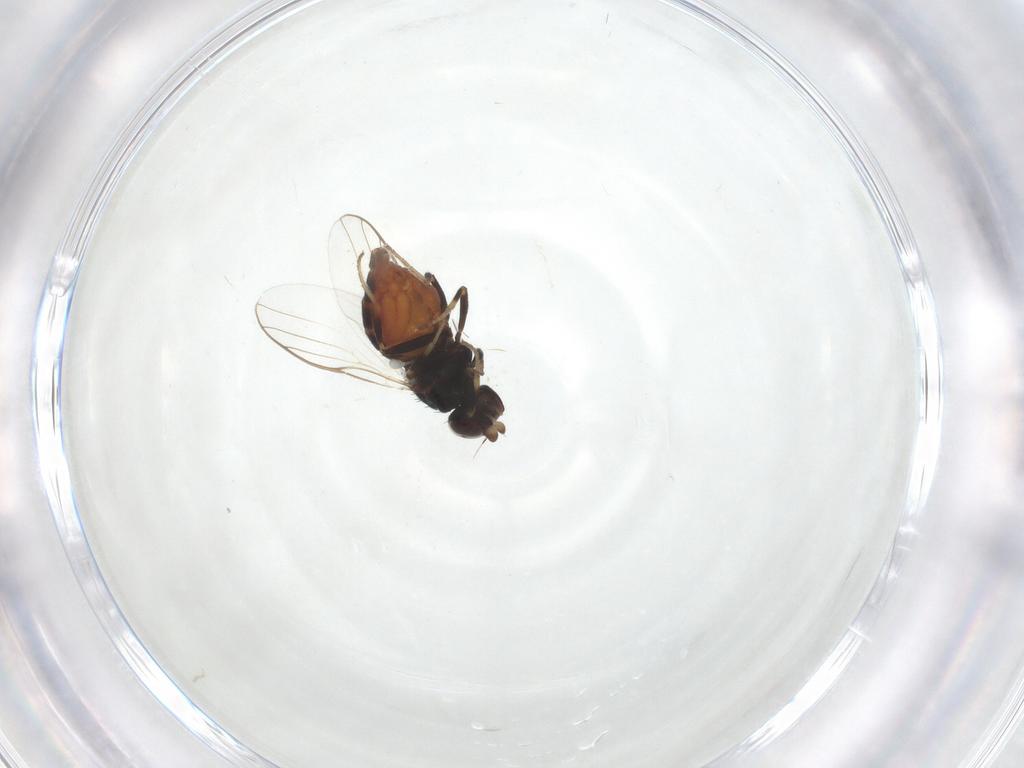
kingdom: Animalia
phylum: Arthropoda
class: Insecta
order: Diptera
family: Chloropidae
